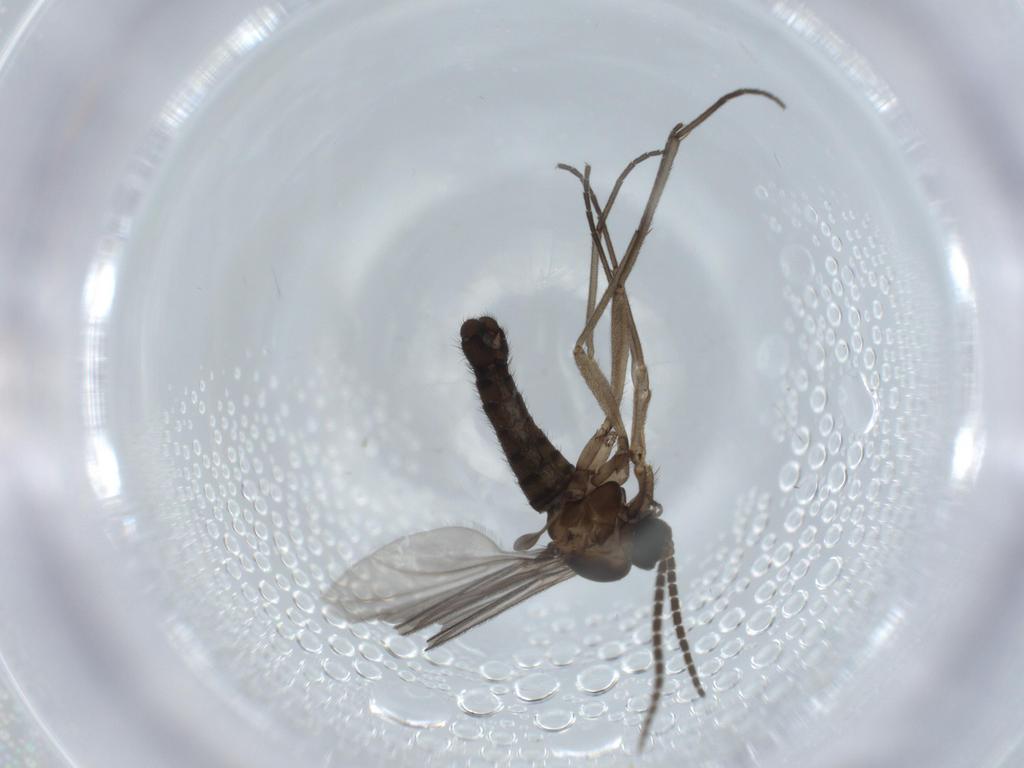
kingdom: Animalia
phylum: Arthropoda
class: Insecta
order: Diptera
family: Sciaridae
